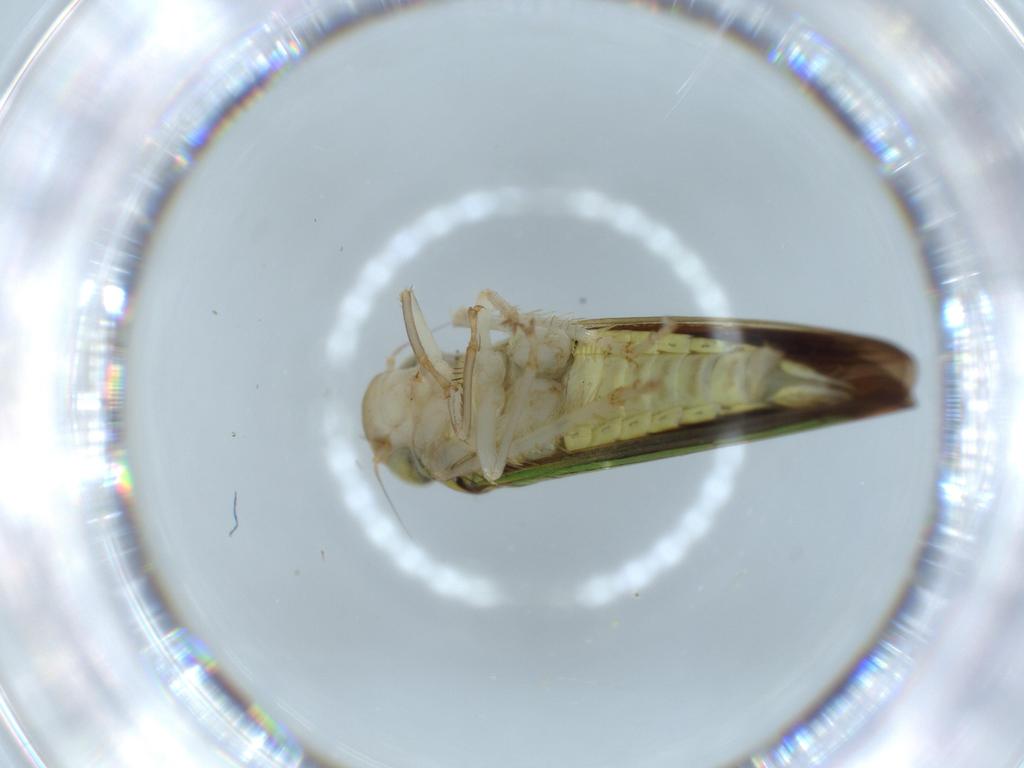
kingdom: Animalia
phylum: Arthropoda
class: Insecta
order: Hemiptera
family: Cicadellidae
